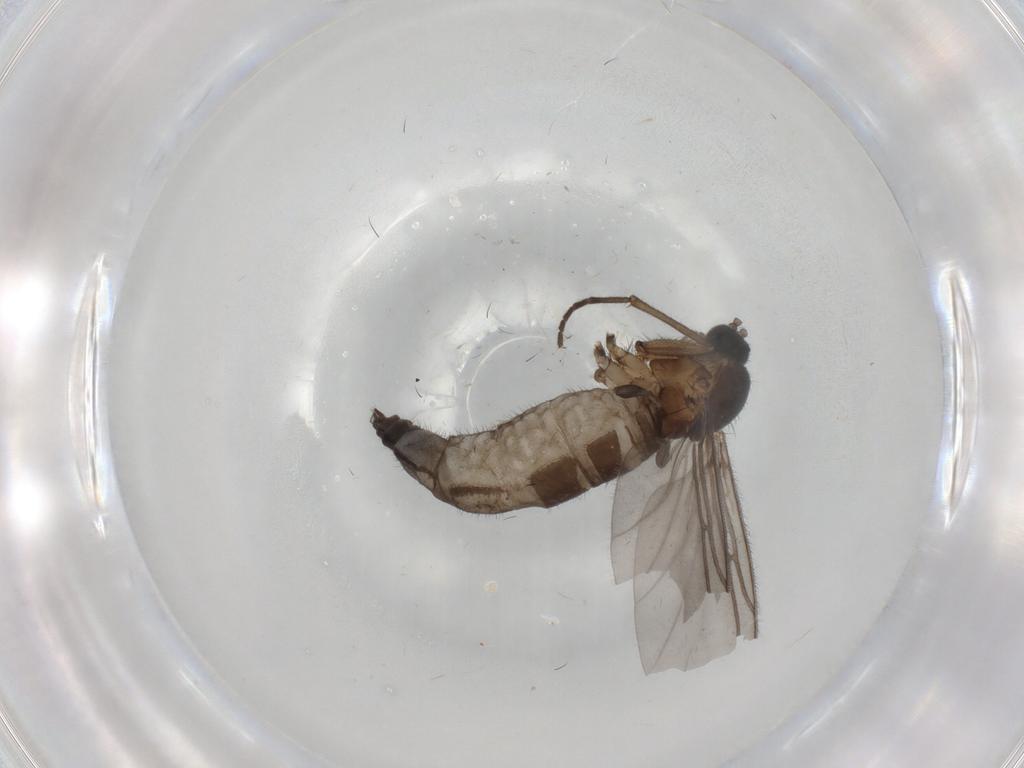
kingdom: Animalia
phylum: Arthropoda
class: Insecta
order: Diptera
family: Sciaridae
